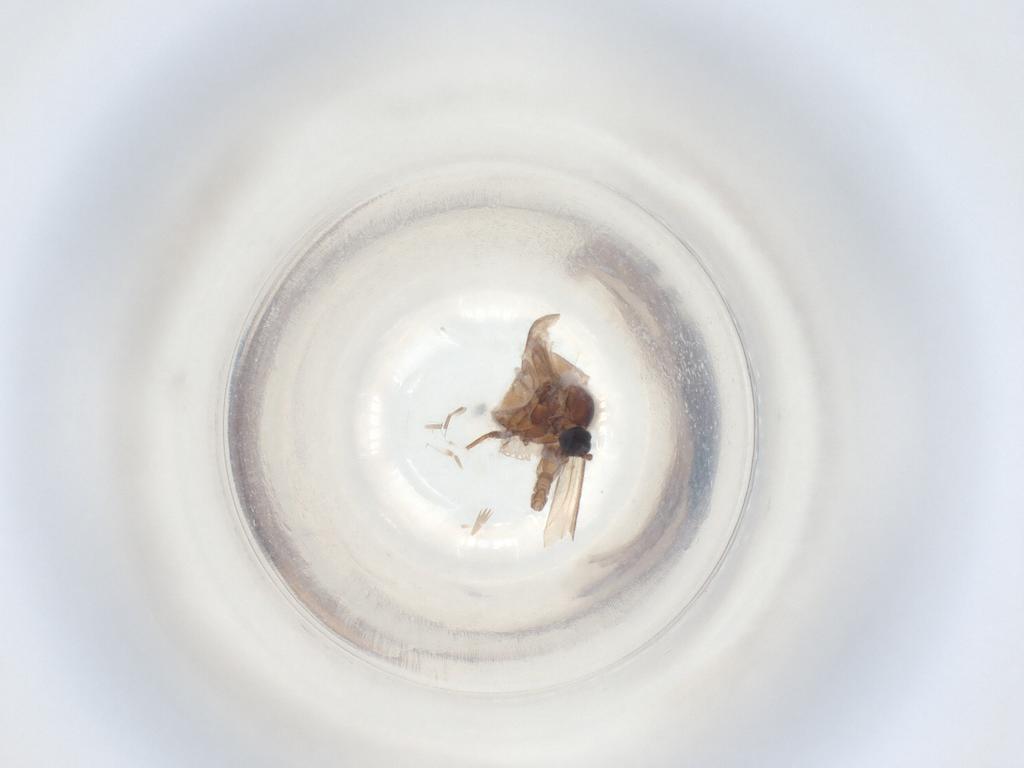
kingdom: Animalia
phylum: Arthropoda
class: Insecta
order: Diptera
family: Sciaridae
